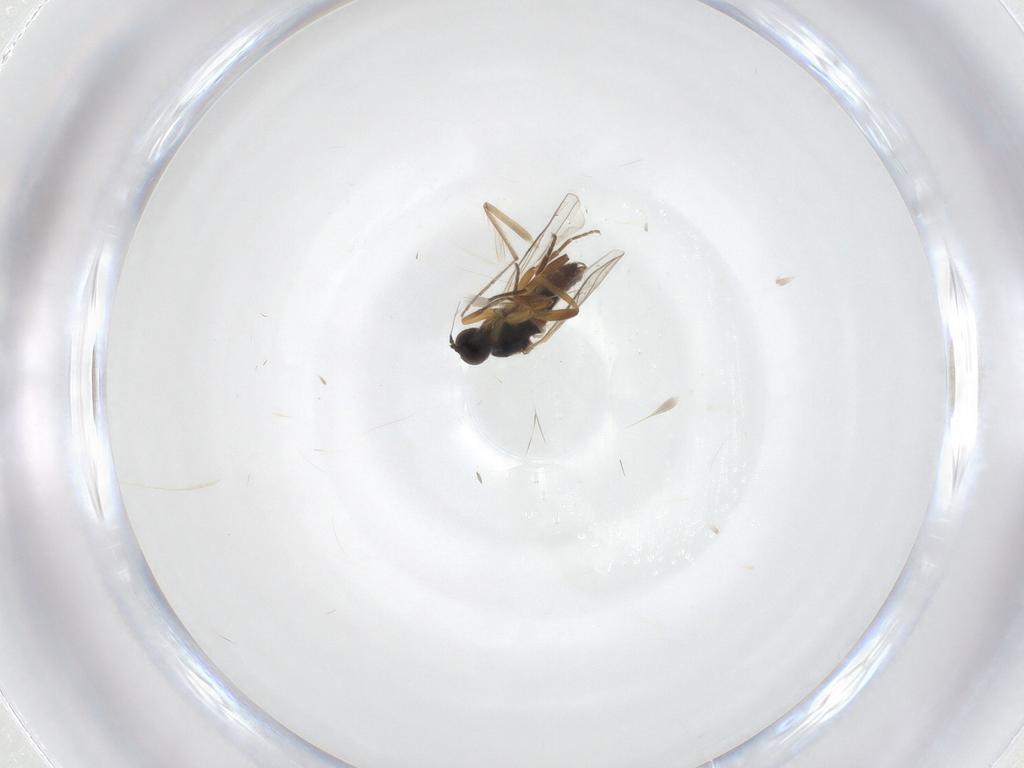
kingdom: Animalia
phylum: Arthropoda
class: Insecta
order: Diptera
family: Hybotidae
